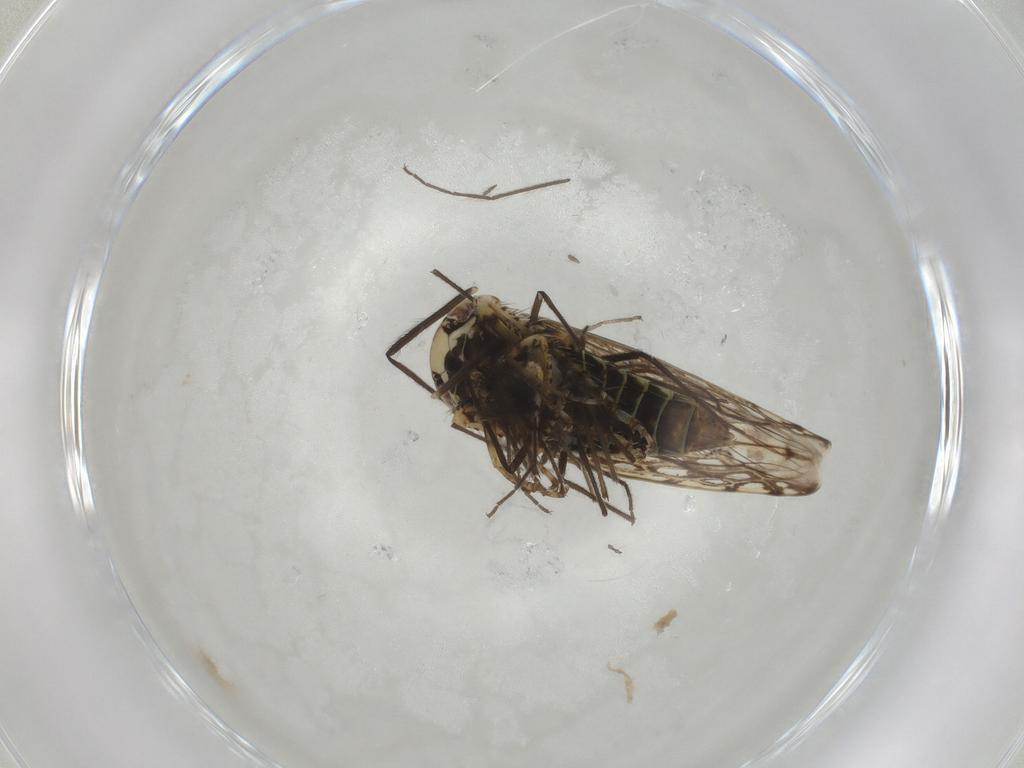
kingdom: Animalia
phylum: Arthropoda
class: Insecta
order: Hemiptera
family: Cicadellidae
